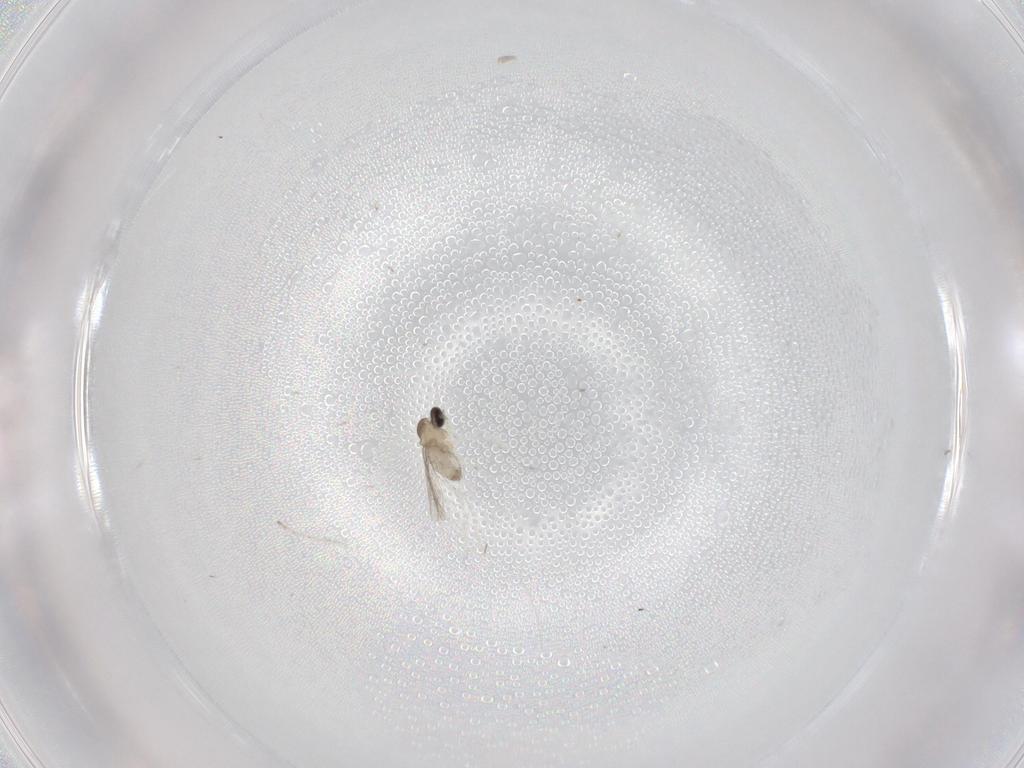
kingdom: Animalia
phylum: Arthropoda
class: Insecta
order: Diptera
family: Cecidomyiidae
